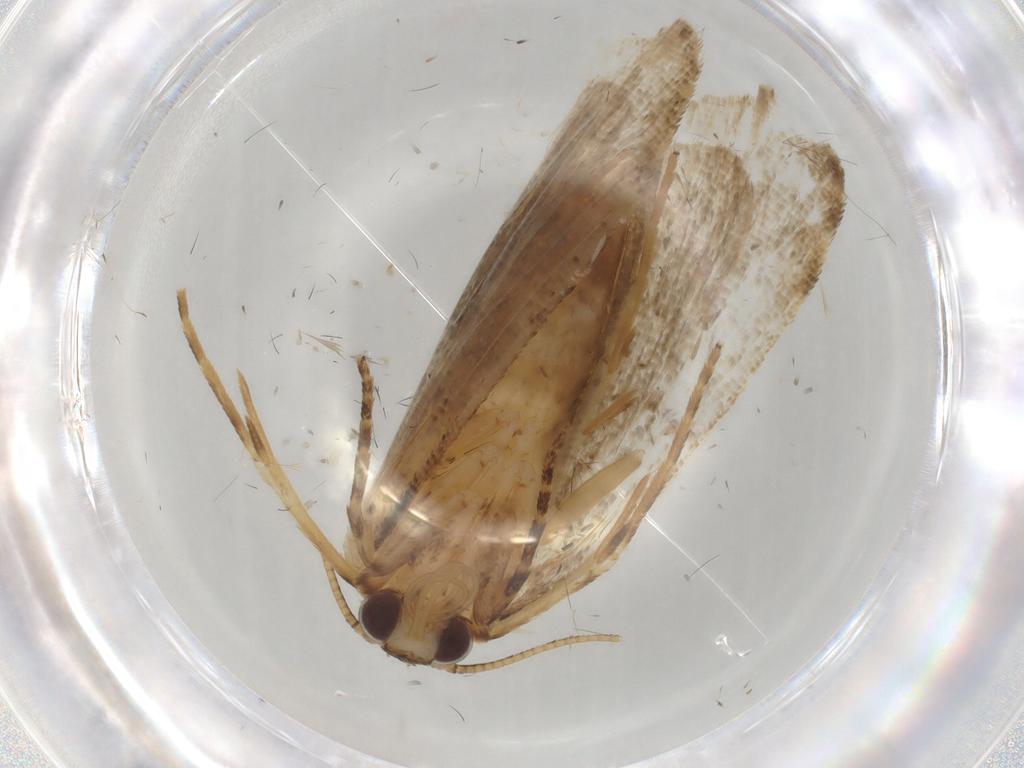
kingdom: Animalia
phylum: Arthropoda
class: Insecta
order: Lepidoptera
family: Erebidae
